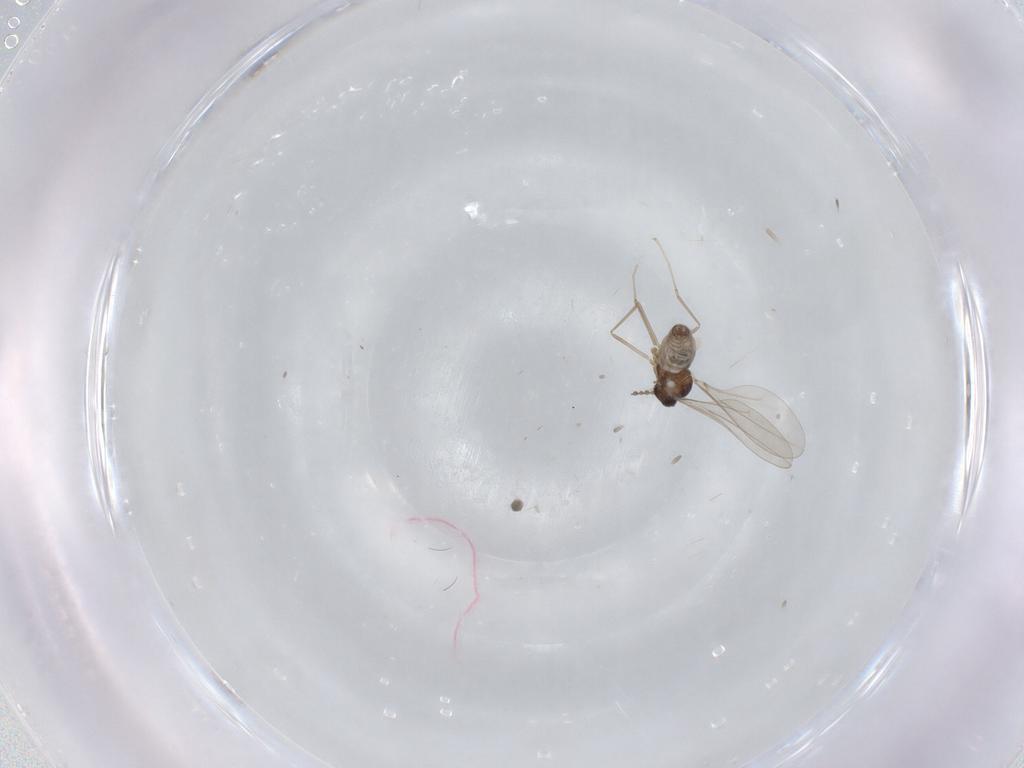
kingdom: Animalia
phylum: Arthropoda
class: Insecta
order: Diptera
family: Cecidomyiidae
